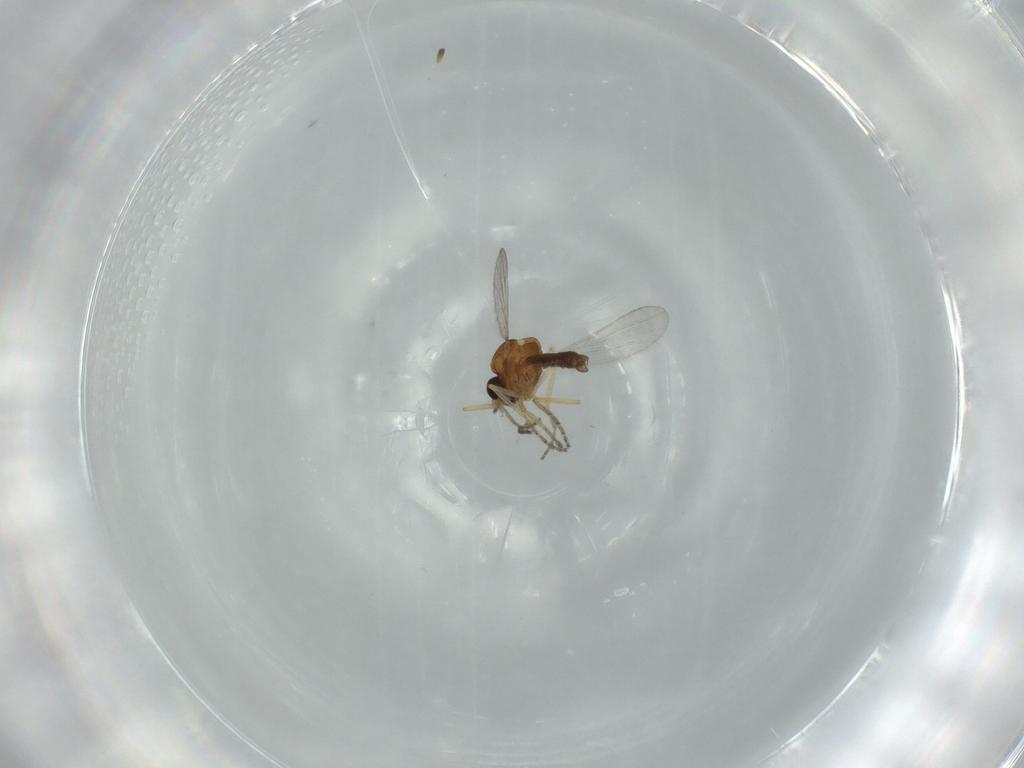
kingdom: Animalia
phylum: Arthropoda
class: Insecta
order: Diptera
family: Ceratopogonidae
